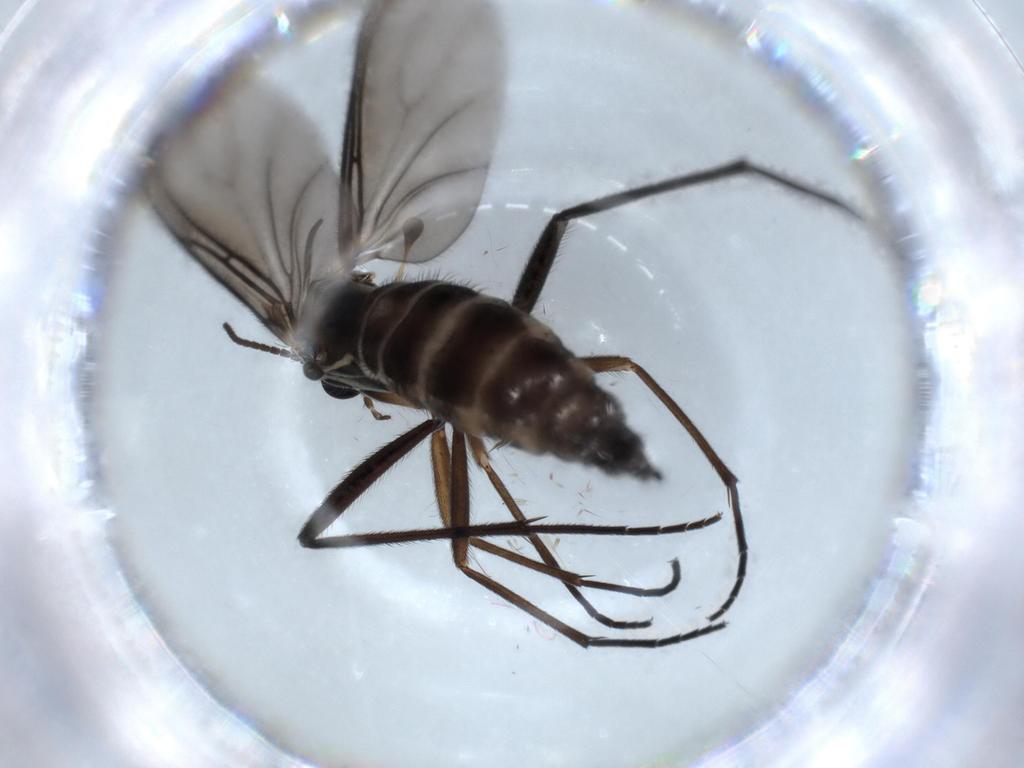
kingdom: Animalia
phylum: Arthropoda
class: Insecta
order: Diptera
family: Sciaridae
